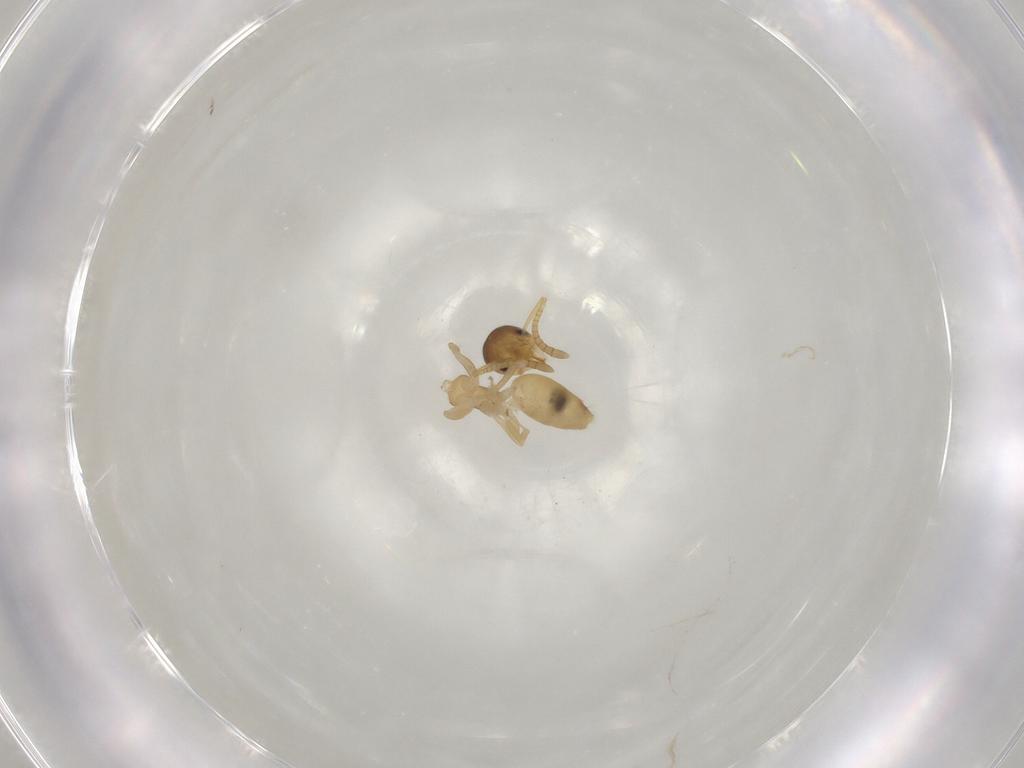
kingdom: Animalia
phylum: Arthropoda
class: Insecta
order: Hymenoptera
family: Formicidae
